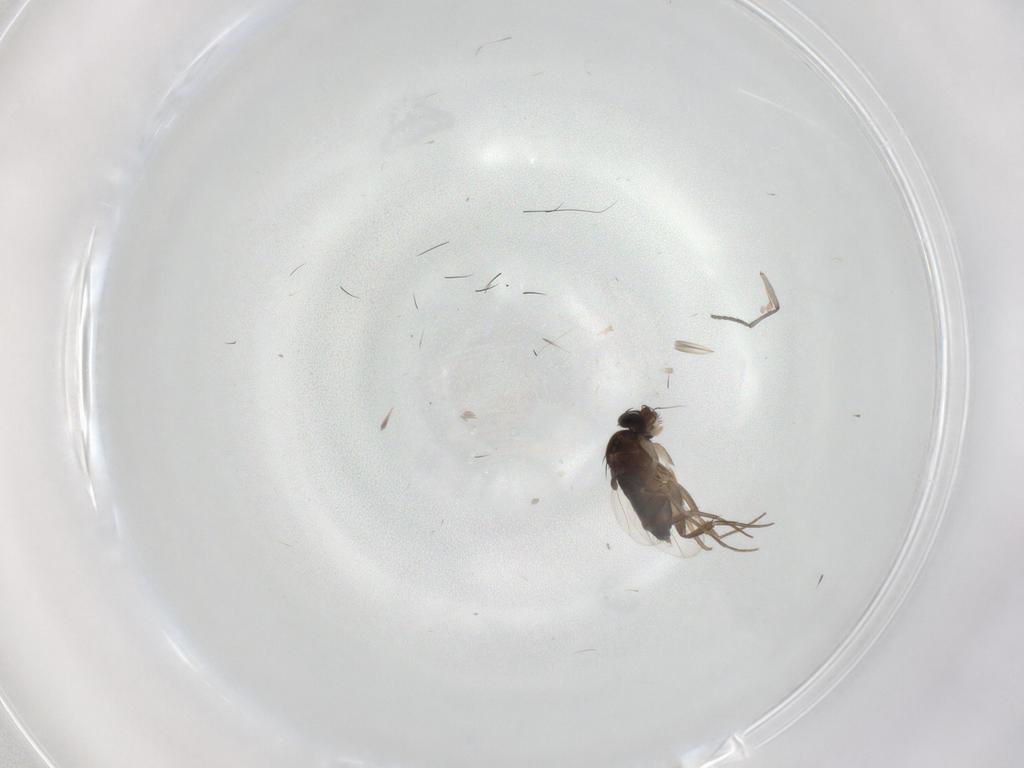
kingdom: Animalia
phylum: Arthropoda
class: Insecta
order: Diptera
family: Phoridae
